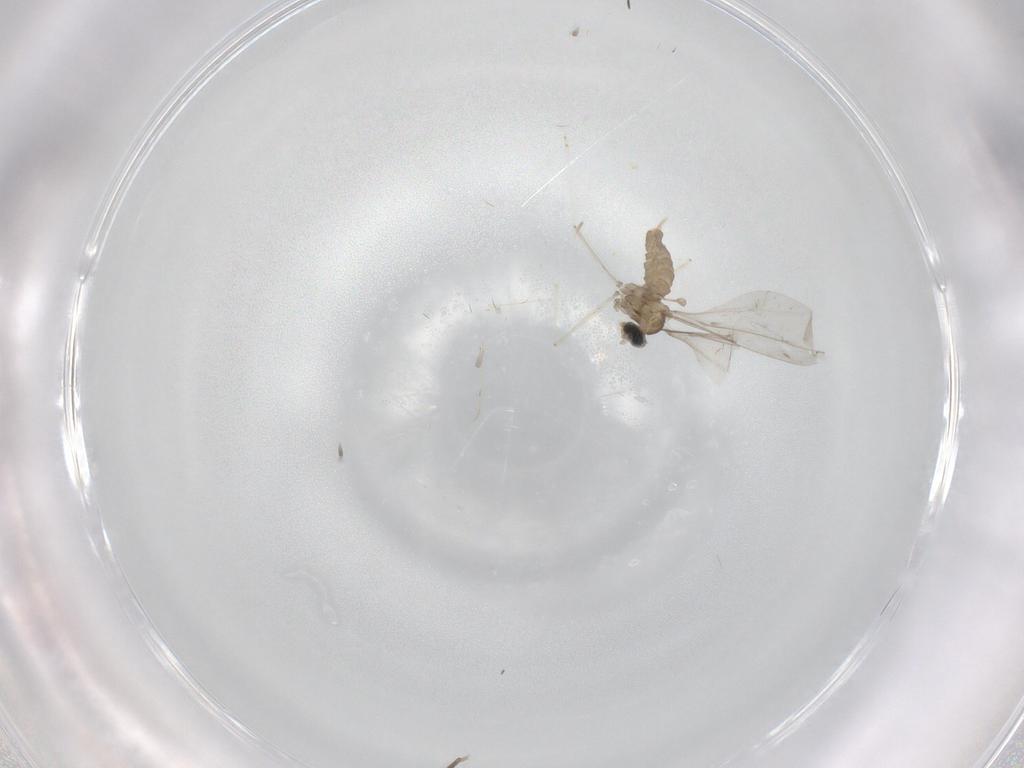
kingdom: Animalia
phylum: Arthropoda
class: Insecta
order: Diptera
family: Cecidomyiidae
